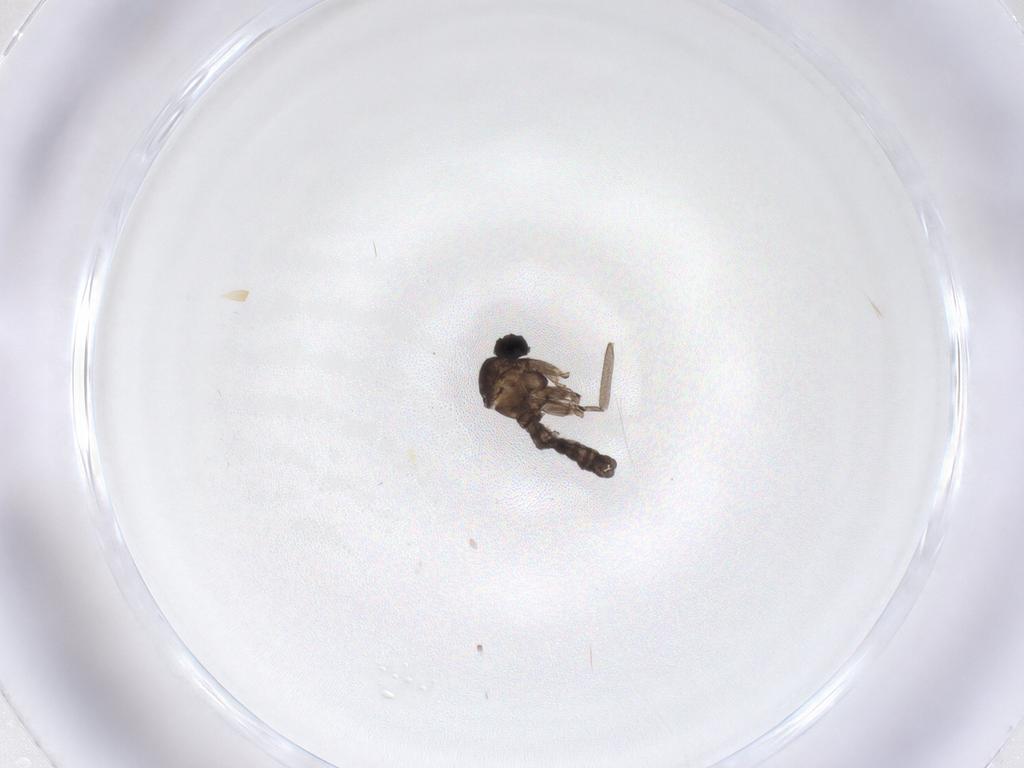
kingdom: Animalia
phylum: Arthropoda
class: Insecta
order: Diptera
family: Sciaridae
